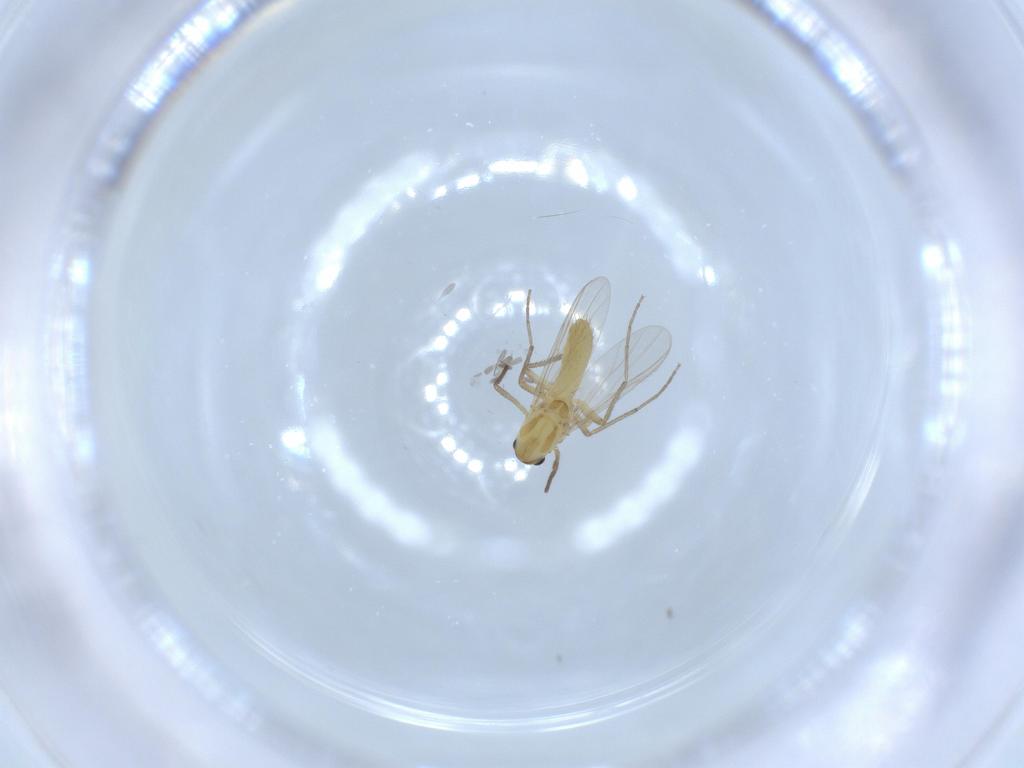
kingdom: Animalia
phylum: Arthropoda
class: Insecta
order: Diptera
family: Chironomidae
